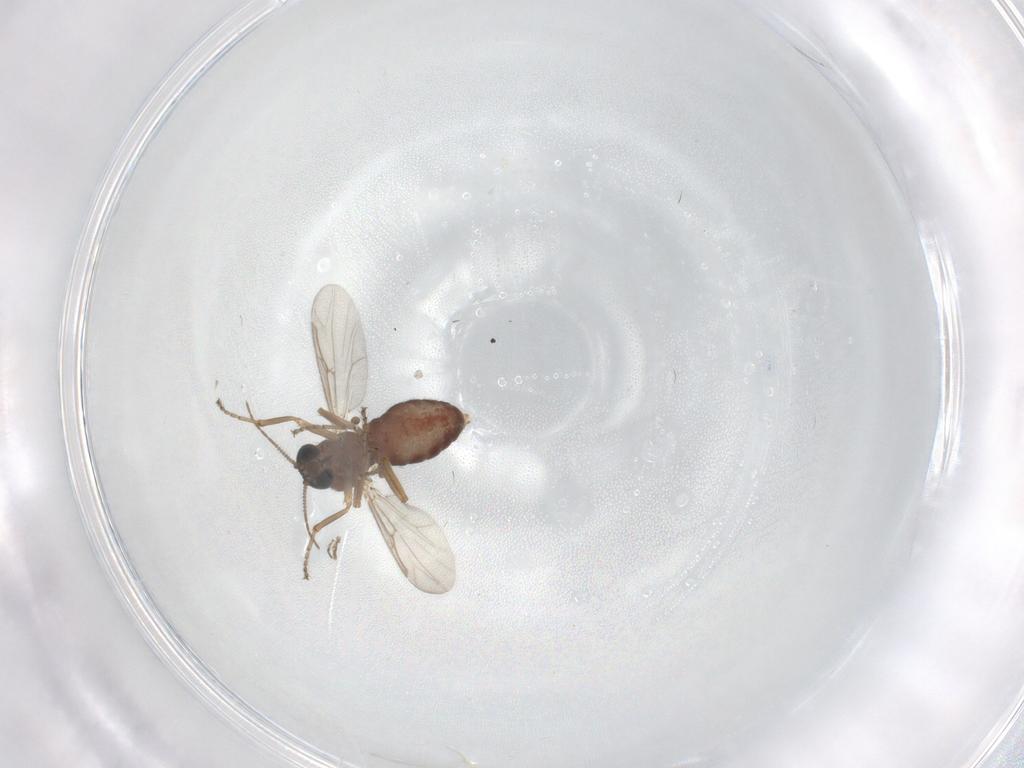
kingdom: Animalia
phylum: Arthropoda
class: Insecta
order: Diptera
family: Ceratopogonidae
